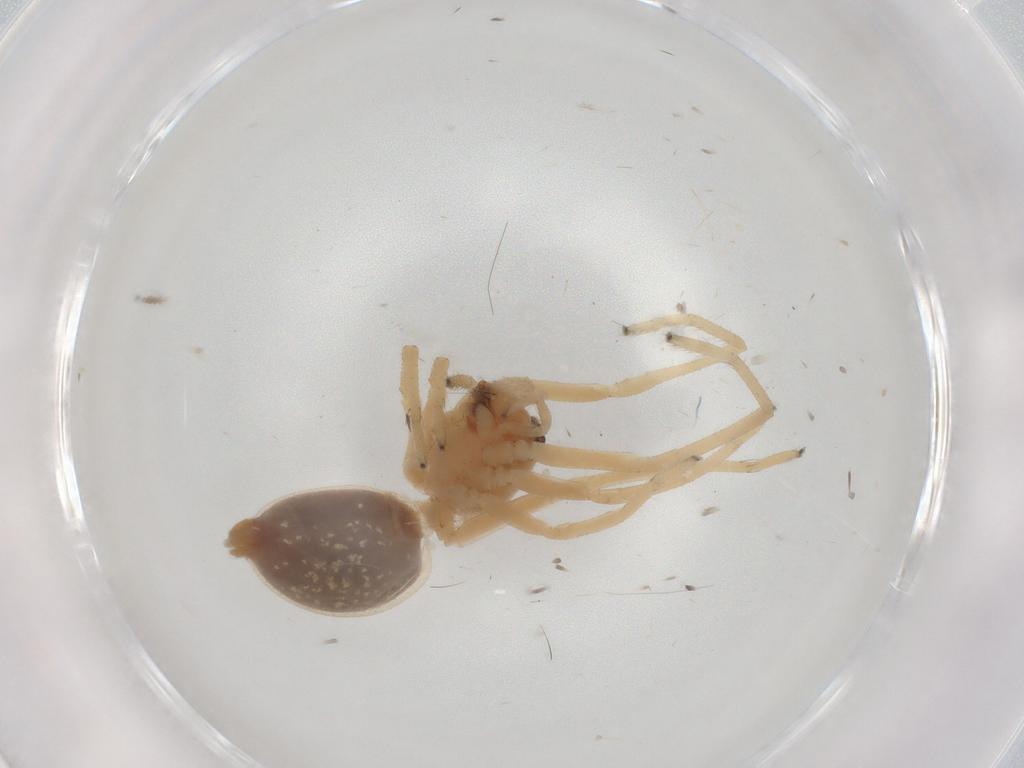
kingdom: Animalia
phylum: Arthropoda
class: Arachnida
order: Araneae
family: Cheiracanthiidae
